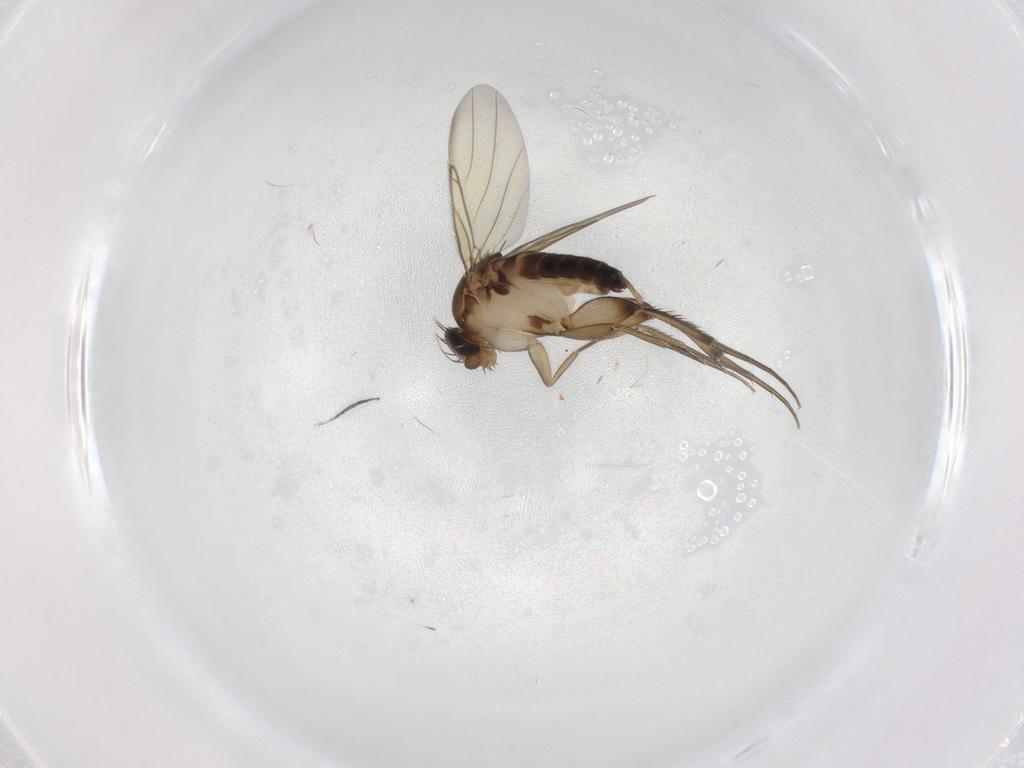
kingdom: Animalia
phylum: Arthropoda
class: Insecta
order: Diptera
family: Phoridae
